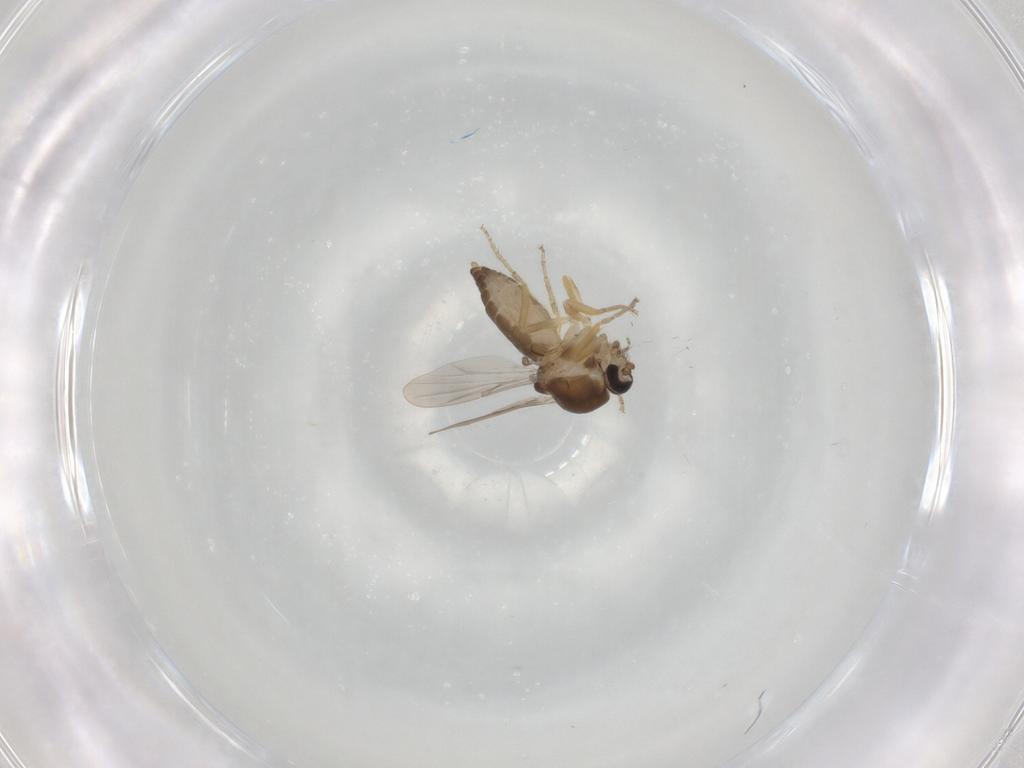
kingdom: Animalia
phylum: Arthropoda
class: Insecta
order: Diptera
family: Ceratopogonidae
